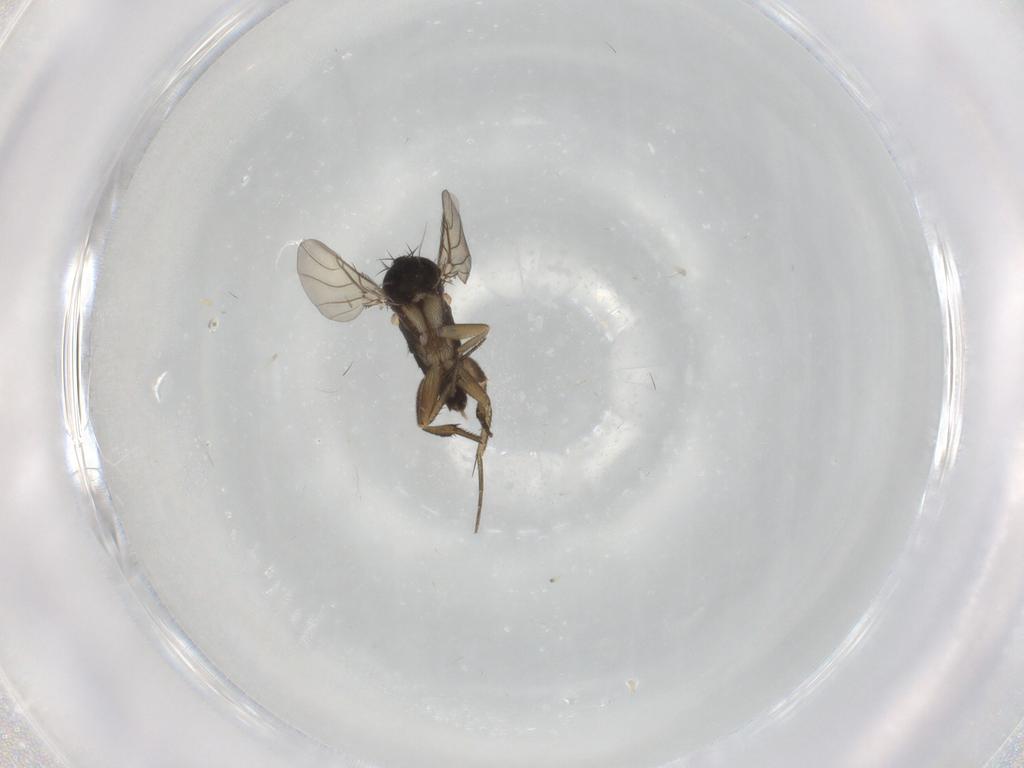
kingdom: Animalia
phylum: Arthropoda
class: Insecta
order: Diptera
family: Phoridae
